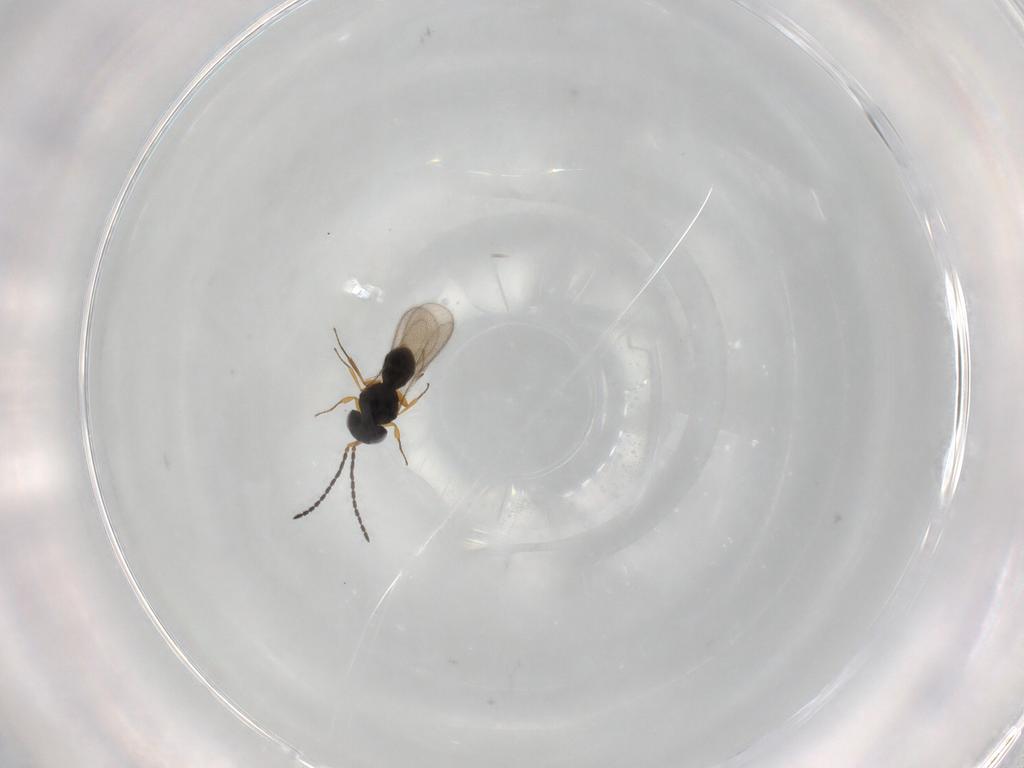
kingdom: Animalia
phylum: Arthropoda
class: Insecta
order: Hymenoptera
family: Scelionidae
